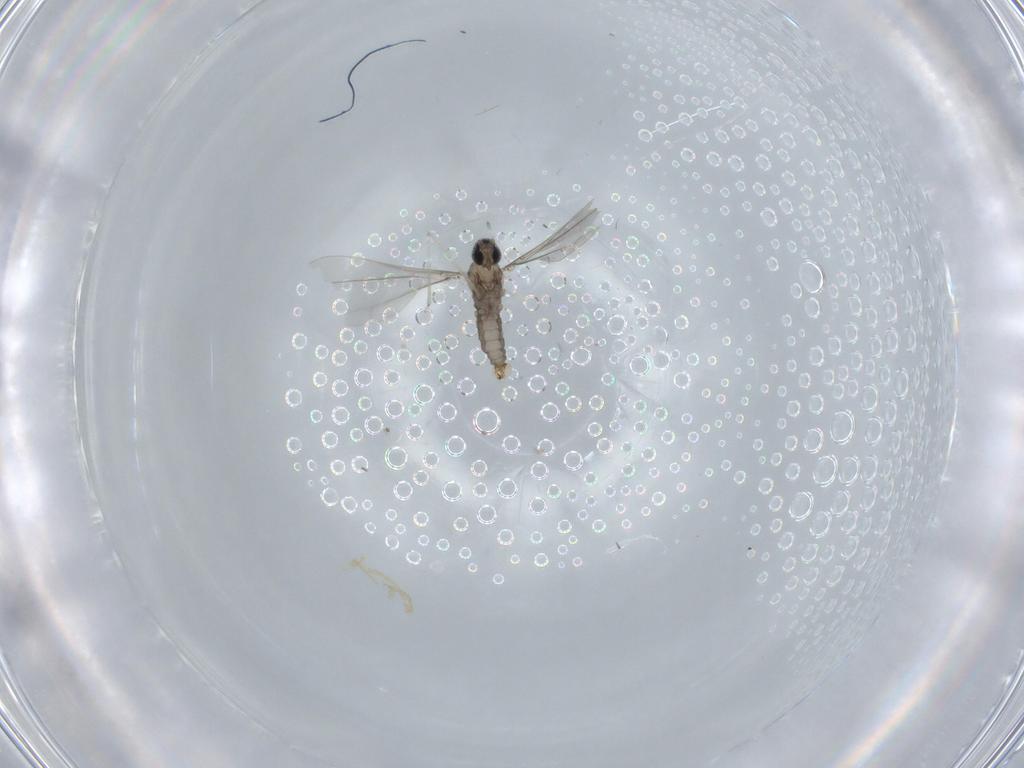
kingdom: Animalia
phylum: Arthropoda
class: Insecta
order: Diptera
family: Cecidomyiidae
